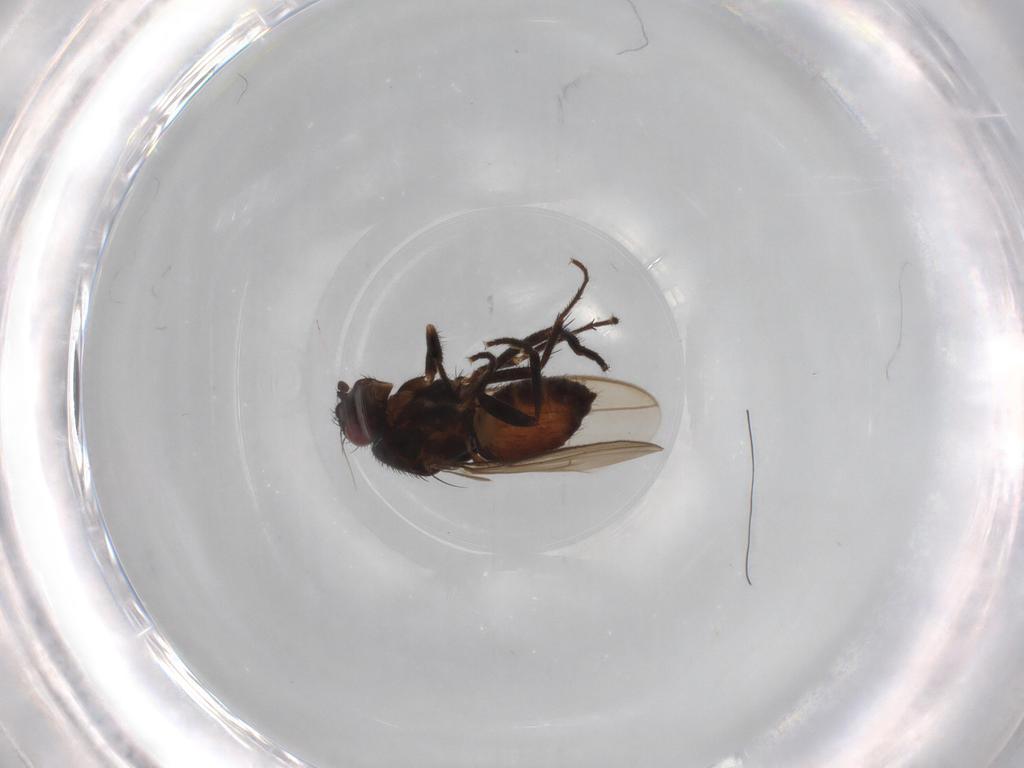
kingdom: Animalia
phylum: Arthropoda
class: Insecta
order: Diptera
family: Sphaeroceridae
